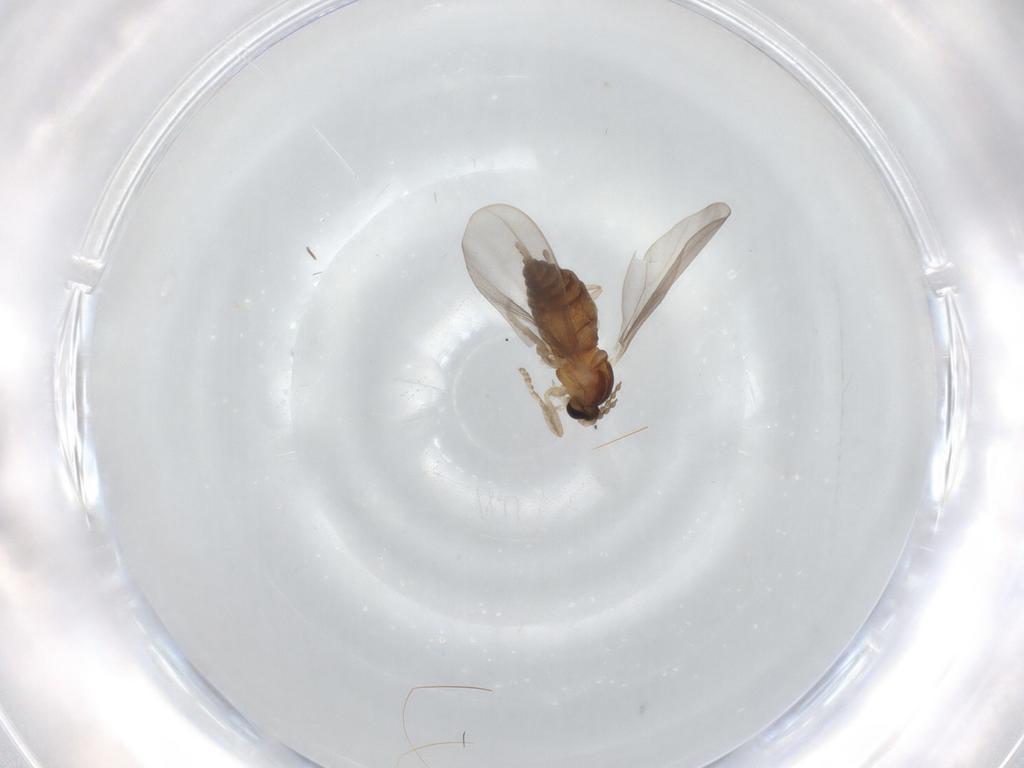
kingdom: Animalia
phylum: Arthropoda
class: Insecta
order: Diptera
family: Cecidomyiidae
